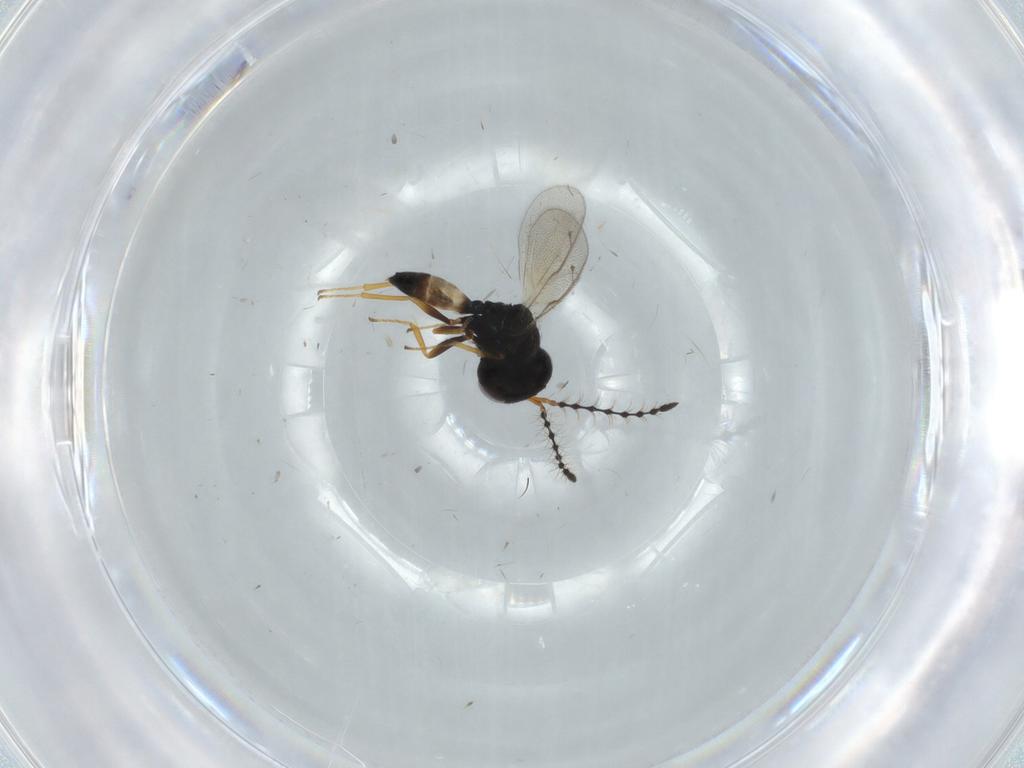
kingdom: Animalia
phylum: Arthropoda
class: Insecta
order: Hymenoptera
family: Pteromalidae
